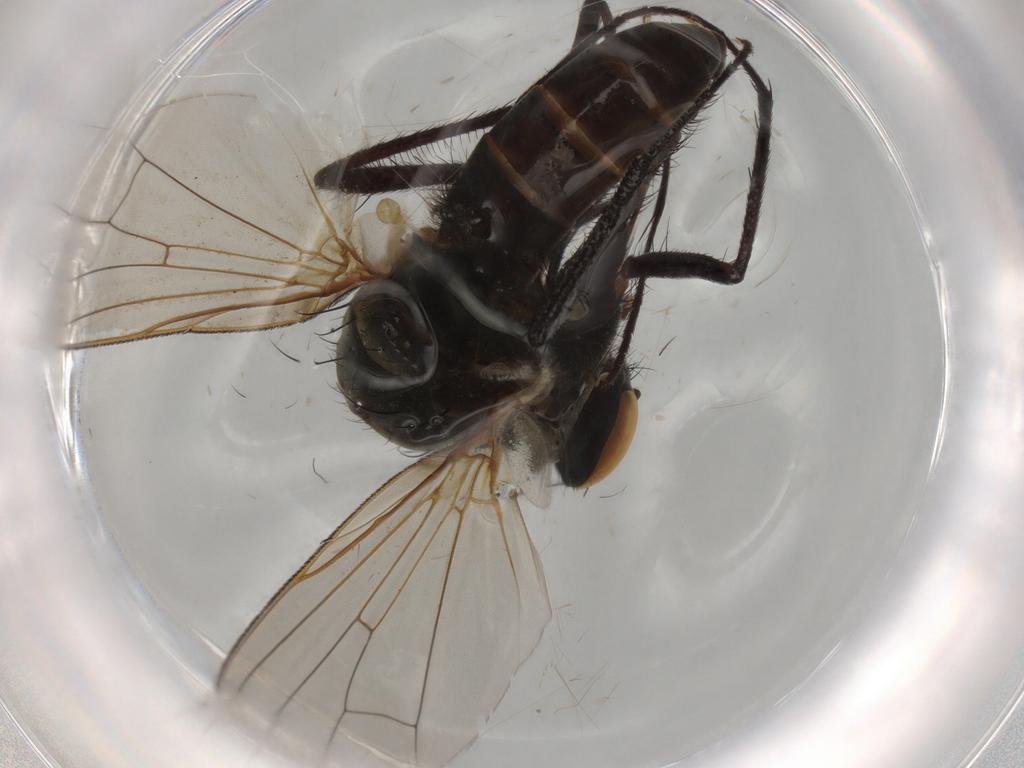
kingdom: Animalia
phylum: Arthropoda
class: Insecta
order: Diptera
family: Anthomyiidae
